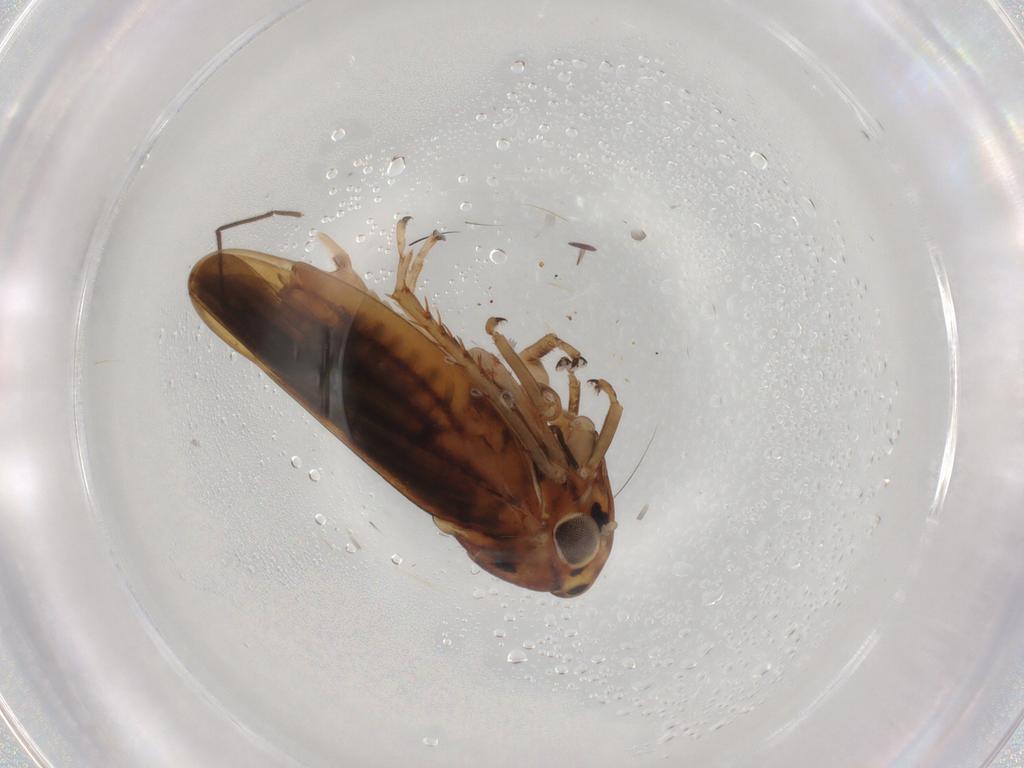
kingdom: Animalia
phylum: Arthropoda
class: Insecta
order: Hemiptera
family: Cicadellidae
